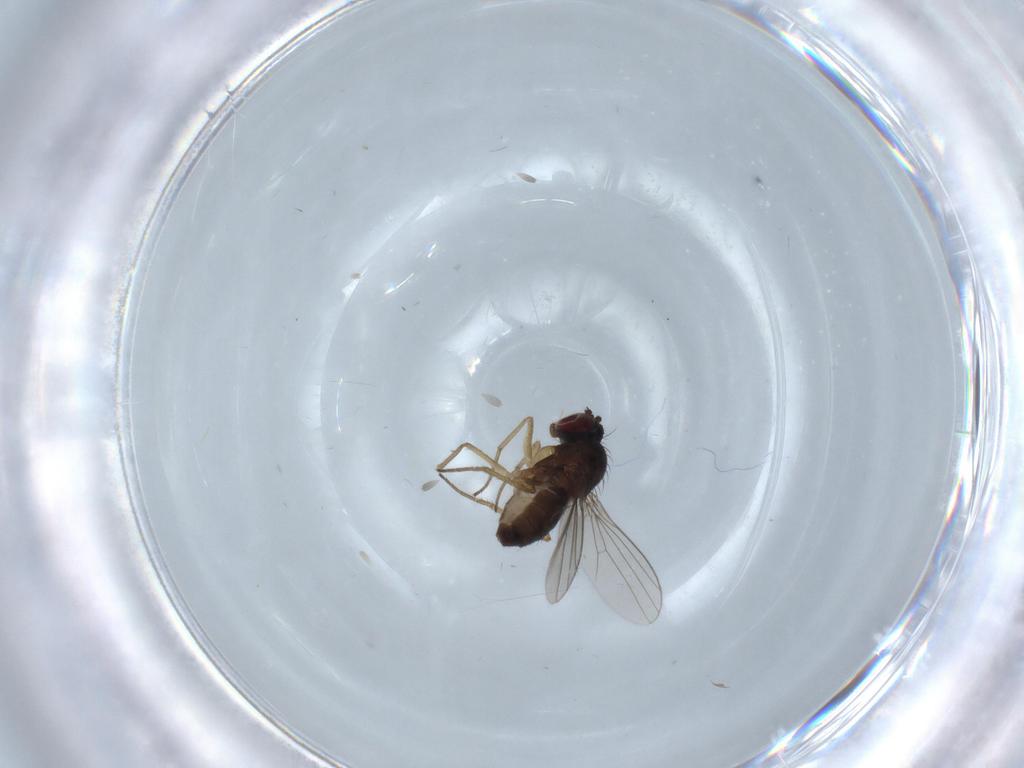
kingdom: Animalia
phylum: Arthropoda
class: Insecta
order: Diptera
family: Dolichopodidae
